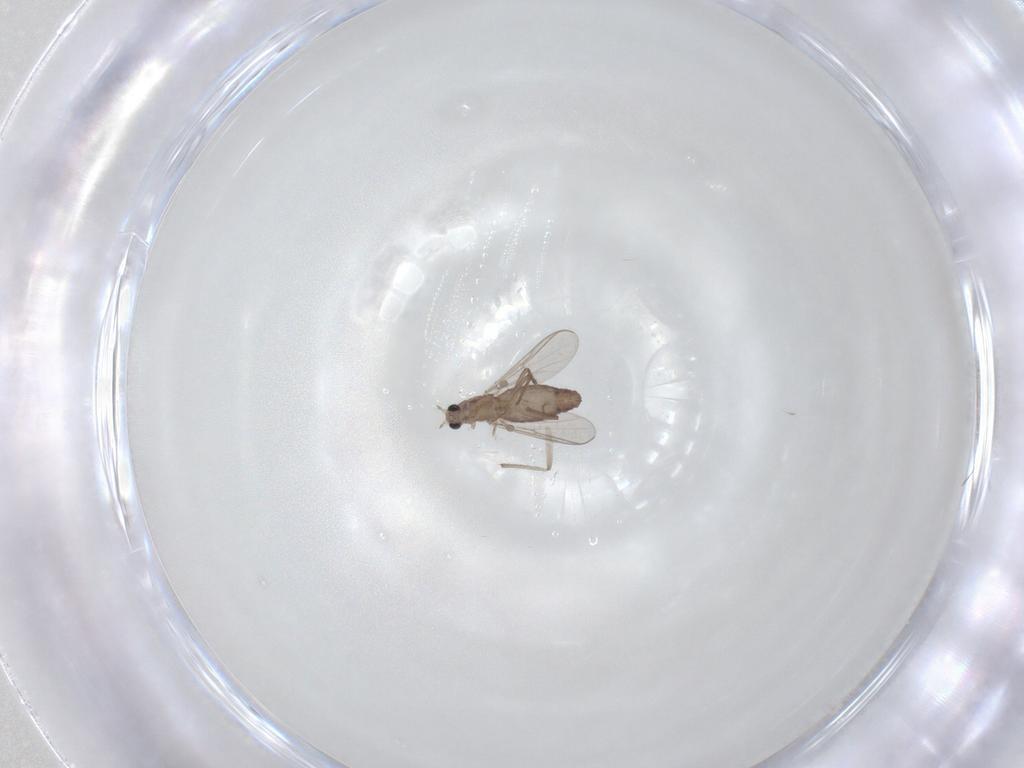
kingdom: Animalia
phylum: Arthropoda
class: Insecta
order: Diptera
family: Chironomidae
